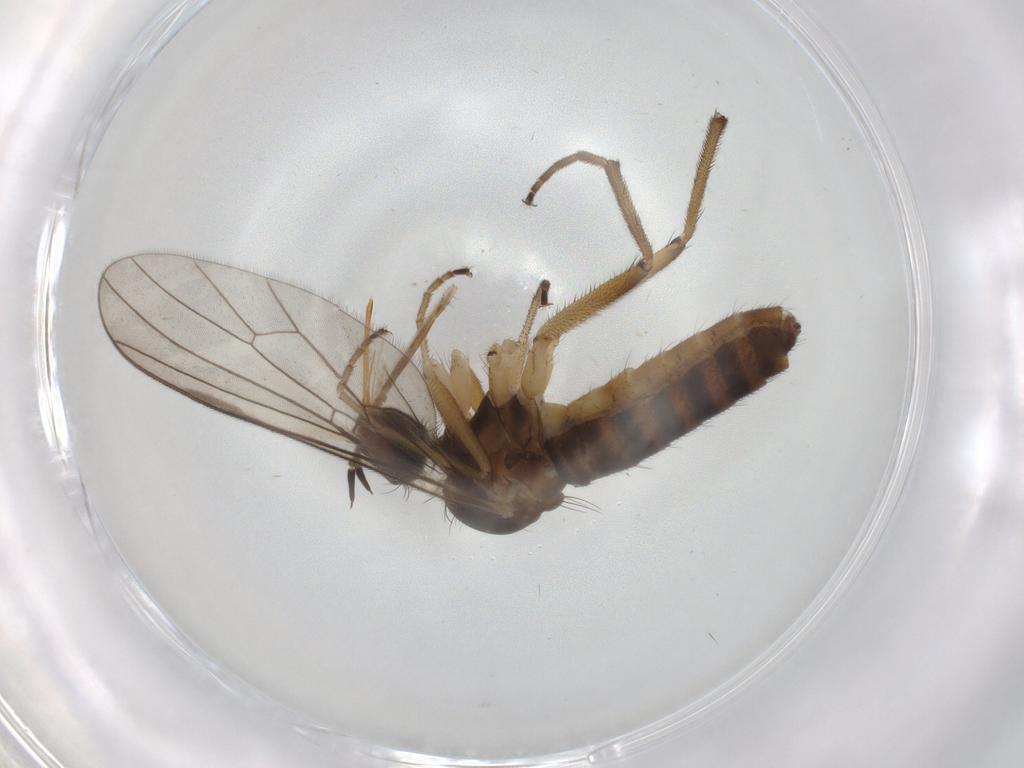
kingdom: Animalia
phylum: Arthropoda
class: Insecta
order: Diptera
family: Empididae
